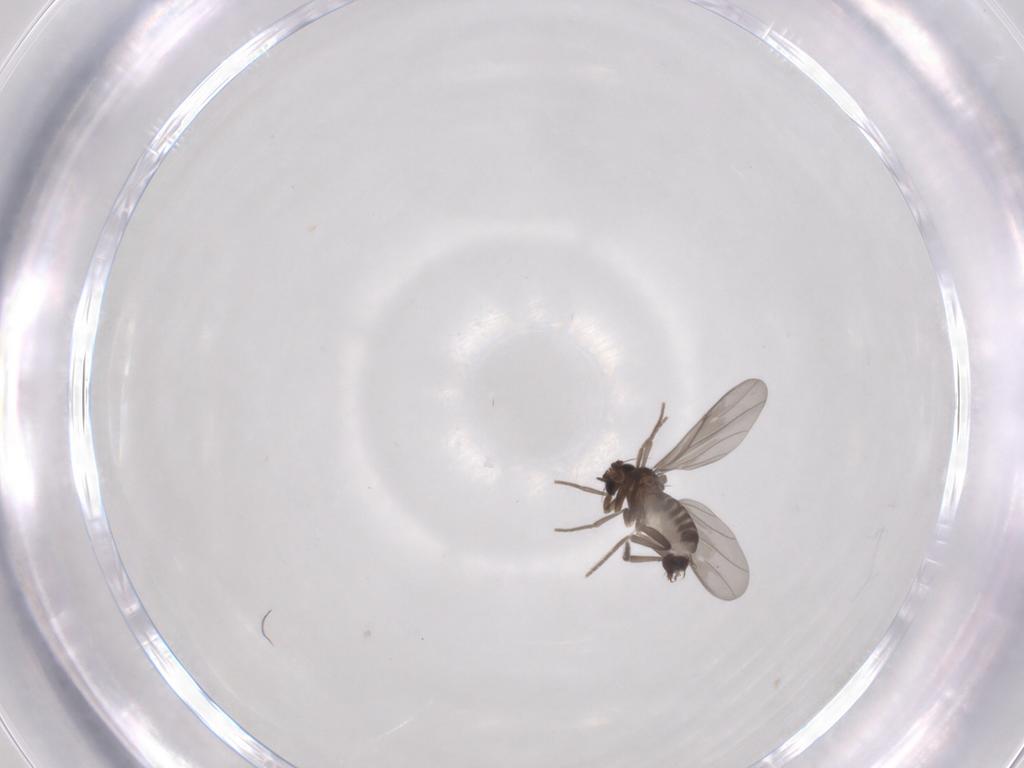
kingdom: Animalia
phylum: Arthropoda
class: Insecta
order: Diptera
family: Phoridae
